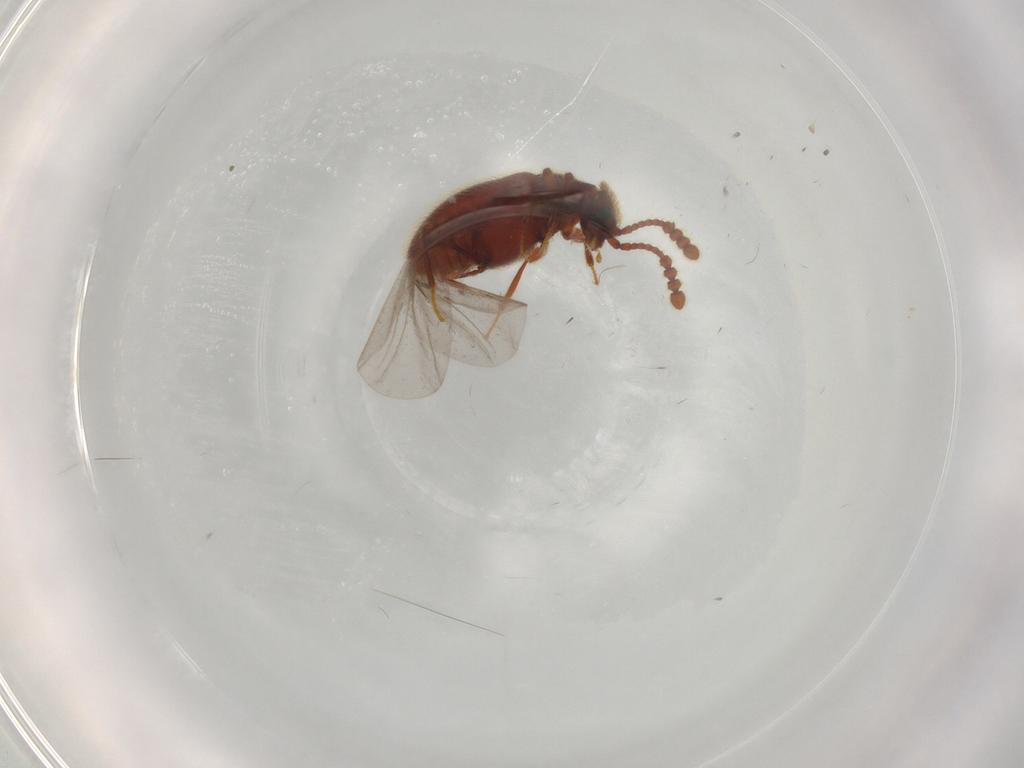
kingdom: Animalia
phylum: Arthropoda
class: Insecta
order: Coleoptera
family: Staphylinidae
